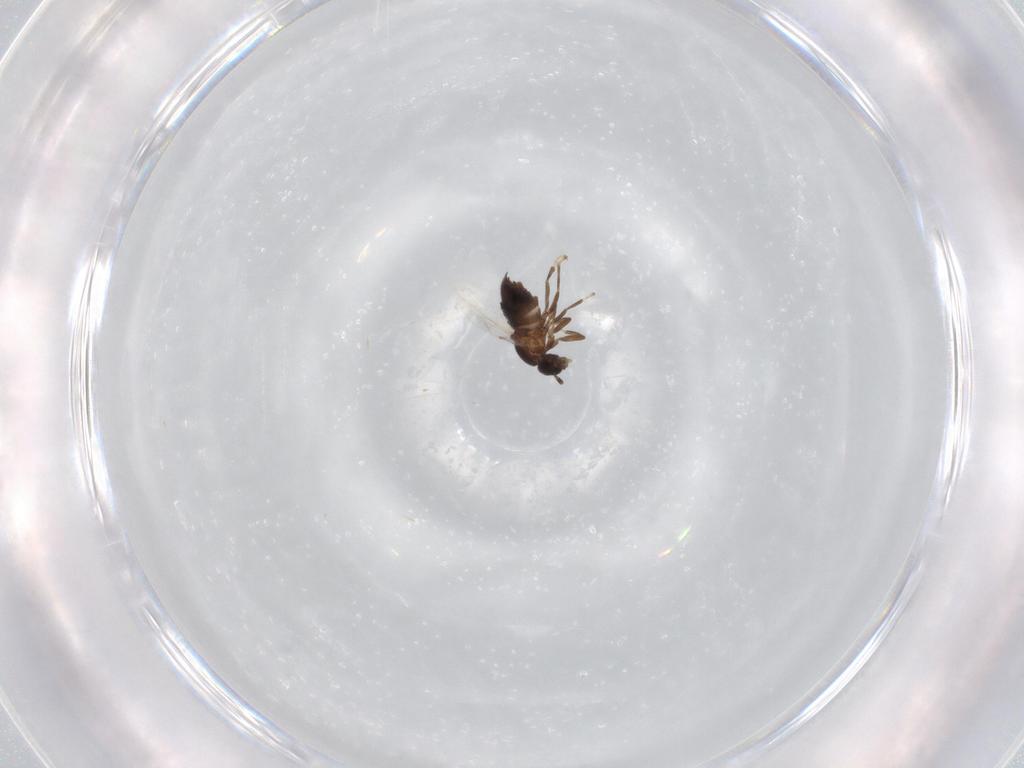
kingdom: Animalia
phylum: Arthropoda
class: Insecta
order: Diptera
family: Scatopsidae
